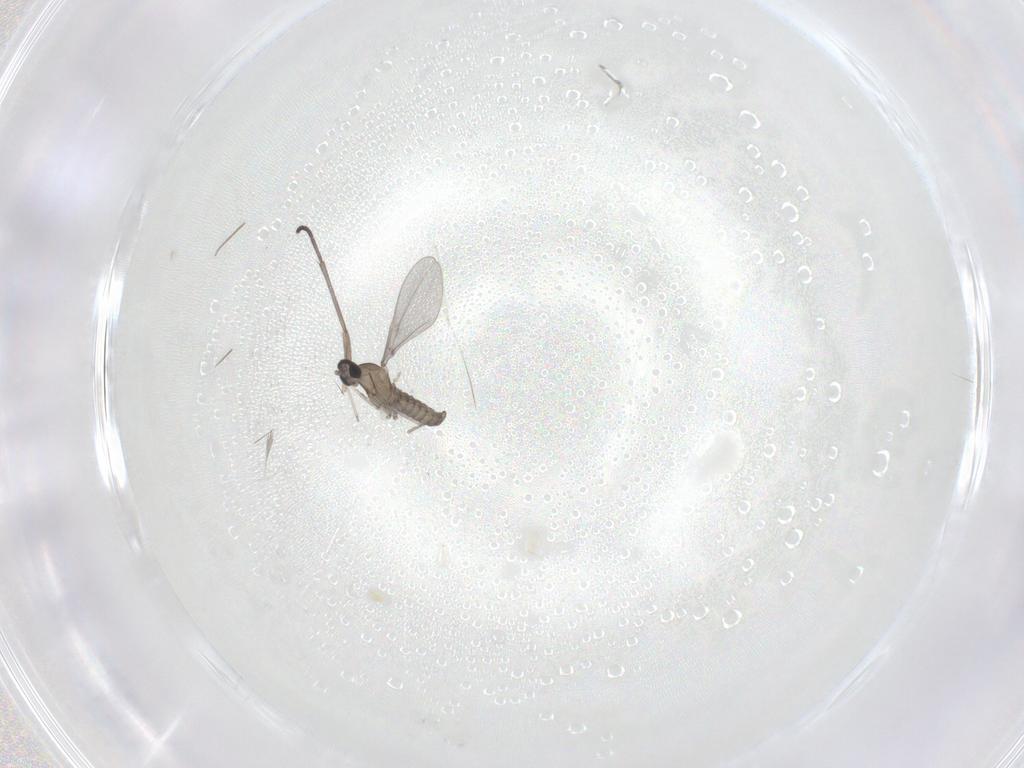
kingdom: Animalia
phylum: Arthropoda
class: Insecta
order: Diptera
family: Cecidomyiidae
